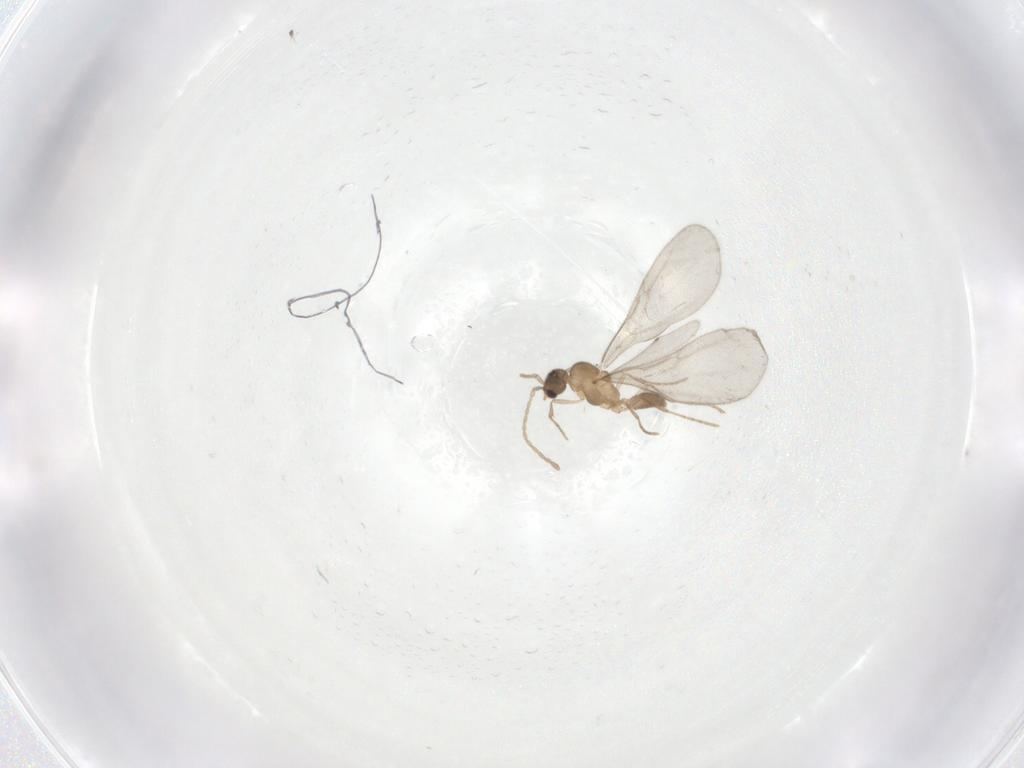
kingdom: Animalia
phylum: Arthropoda
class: Insecta
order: Hymenoptera
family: Formicidae
